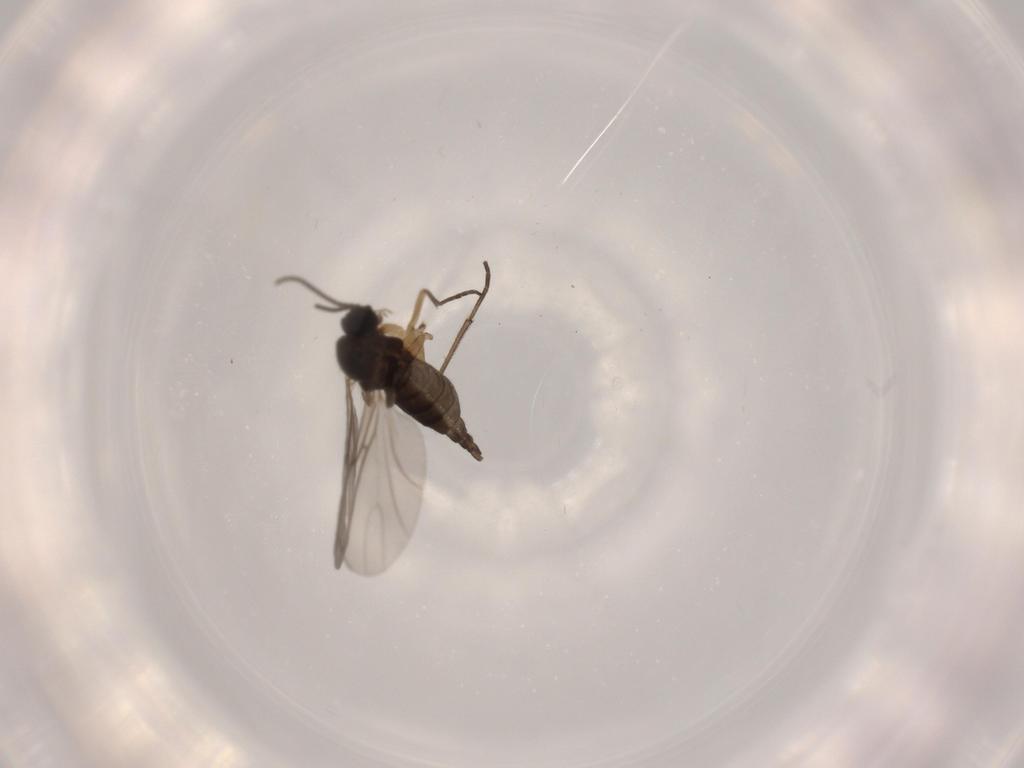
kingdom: Animalia
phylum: Arthropoda
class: Insecta
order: Diptera
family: Sciaridae
